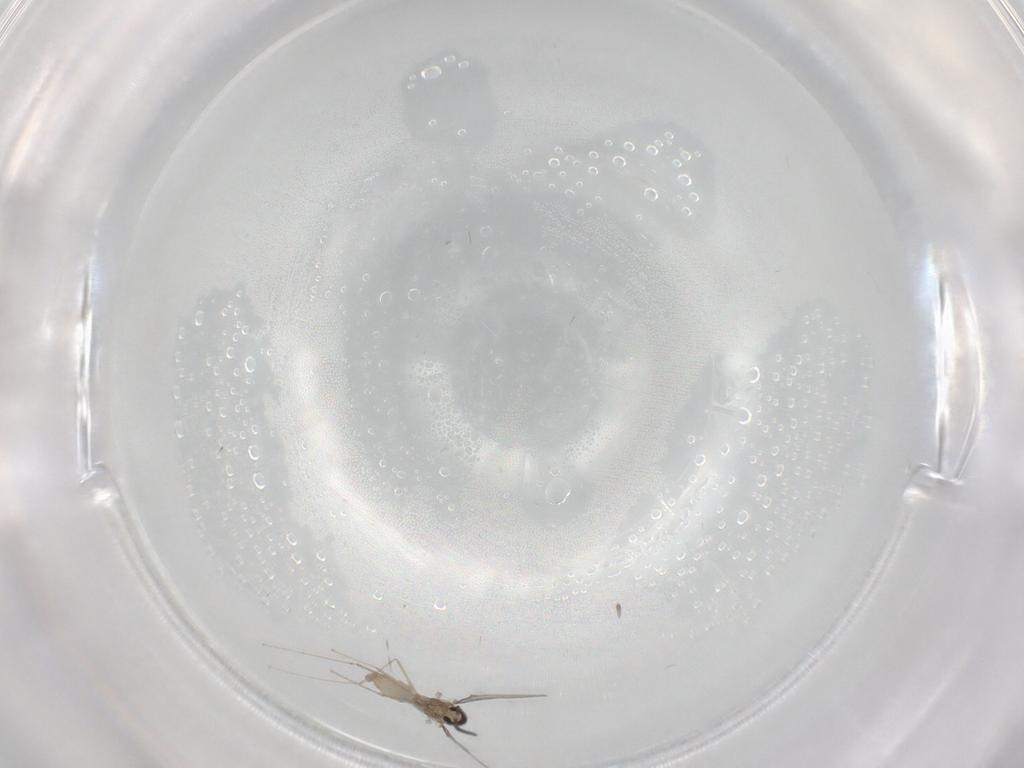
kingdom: Animalia
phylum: Arthropoda
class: Insecta
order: Diptera
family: Cecidomyiidae
